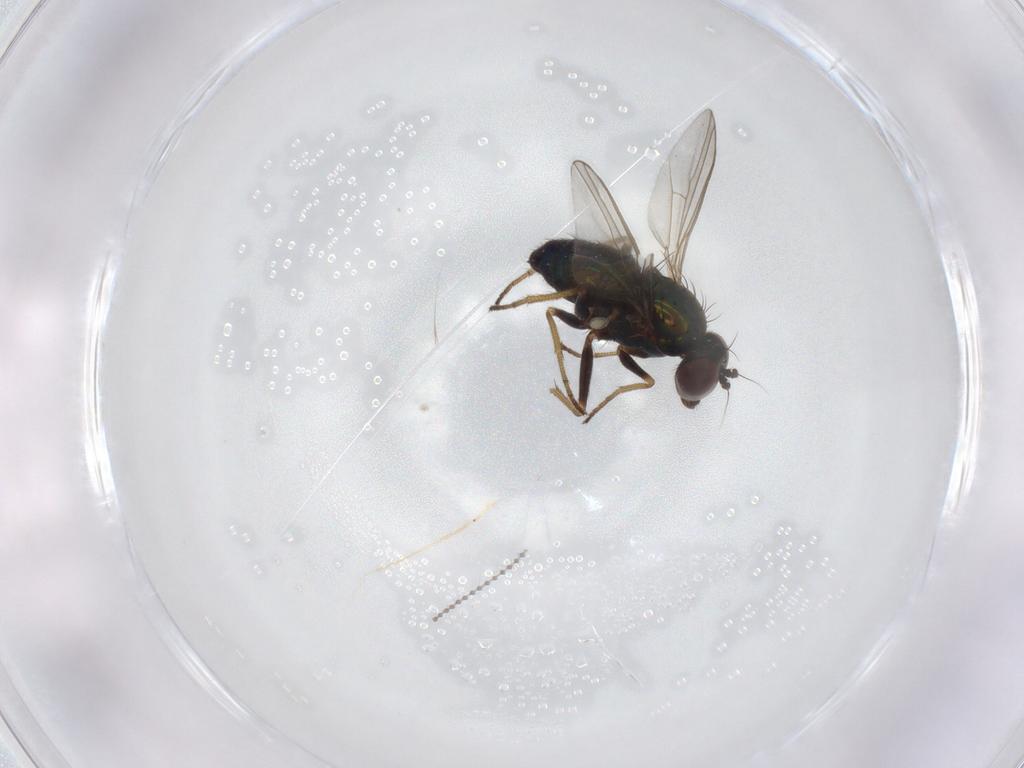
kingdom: Animalia
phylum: Arthropoda
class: Insecta
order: Diptera
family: Dolichopodidae
